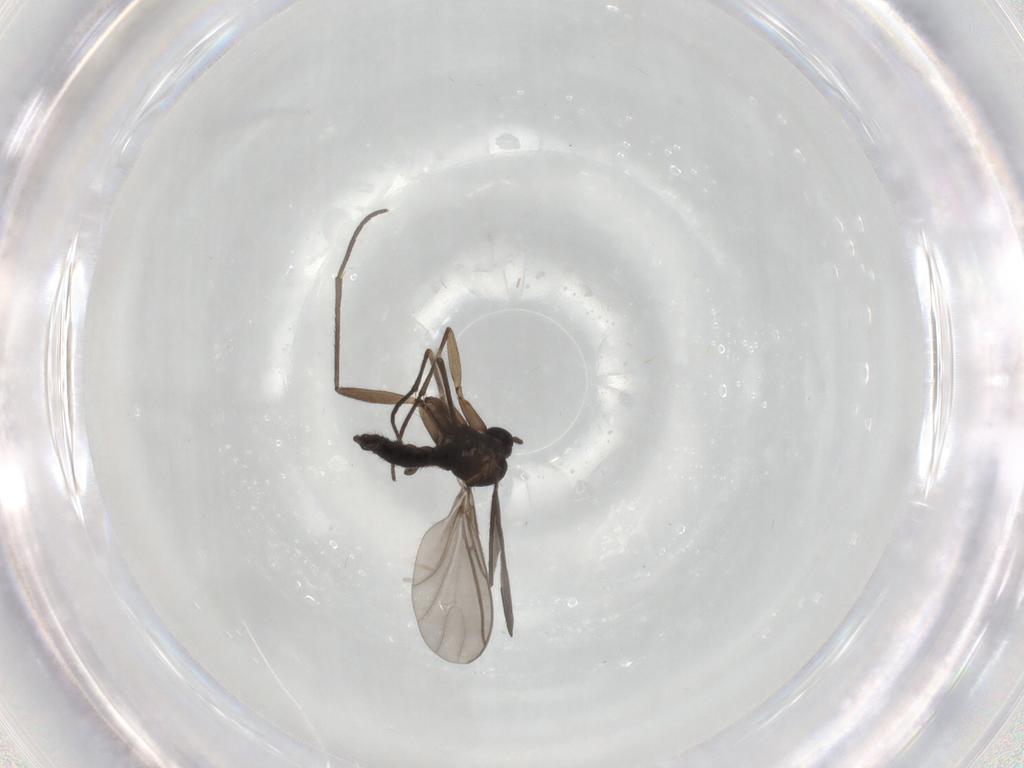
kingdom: Animalia
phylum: Arthropoda
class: Insecta
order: Diptera
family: Sciaridae
